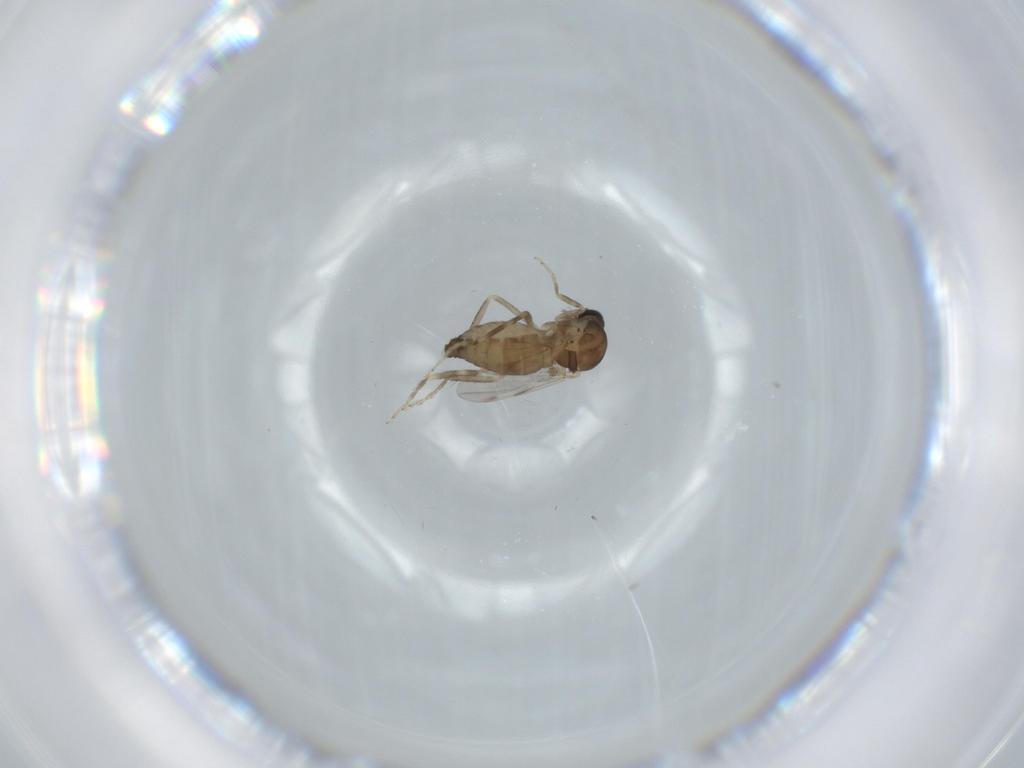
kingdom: Animalia
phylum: Arthropoda
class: Insecta
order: Diptera
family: Ceratopogonidae
